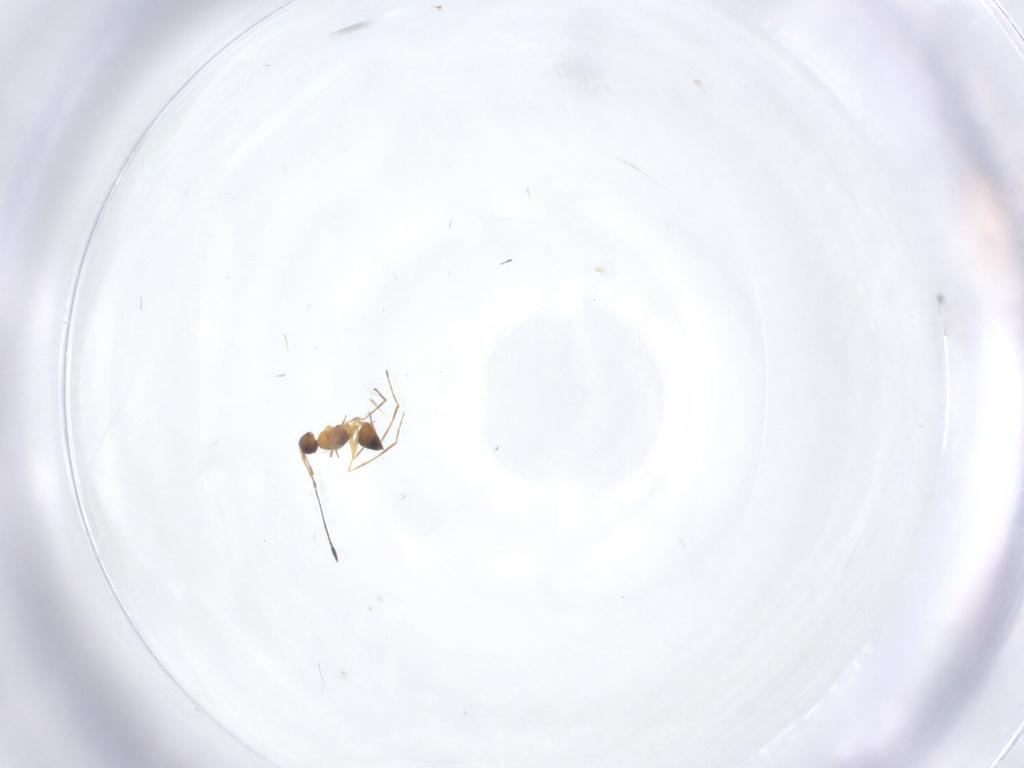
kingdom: Animalia
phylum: Arthropoda
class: Insecta
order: Hymenoptera
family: Mymaridae
